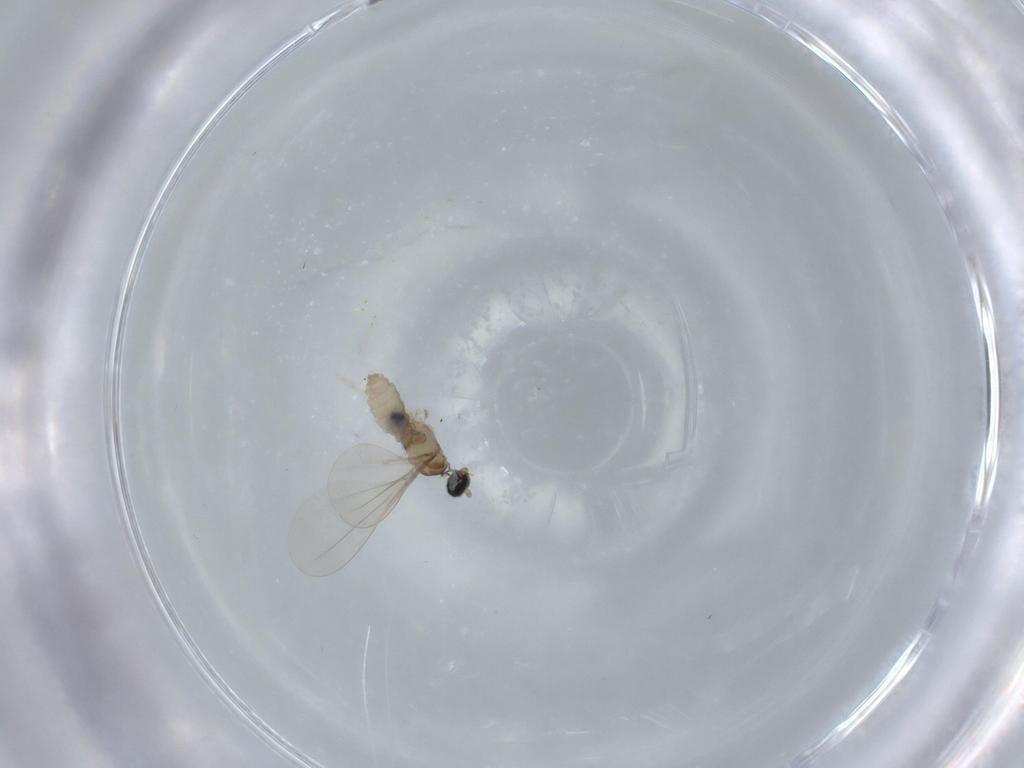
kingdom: Animalia
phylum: Arthropoda
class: Insecta
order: Diptera
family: Cecidomyiidae
